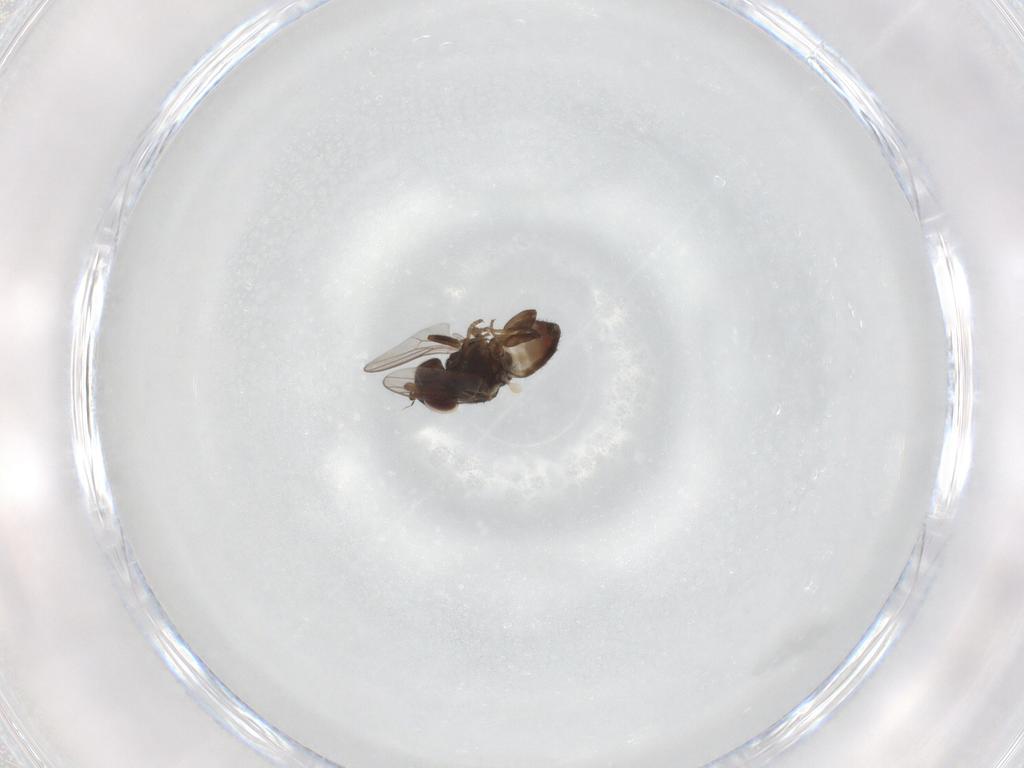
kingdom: Animalia
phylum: Arthropoda
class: Insecta
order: Diptera
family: Chloropidae
